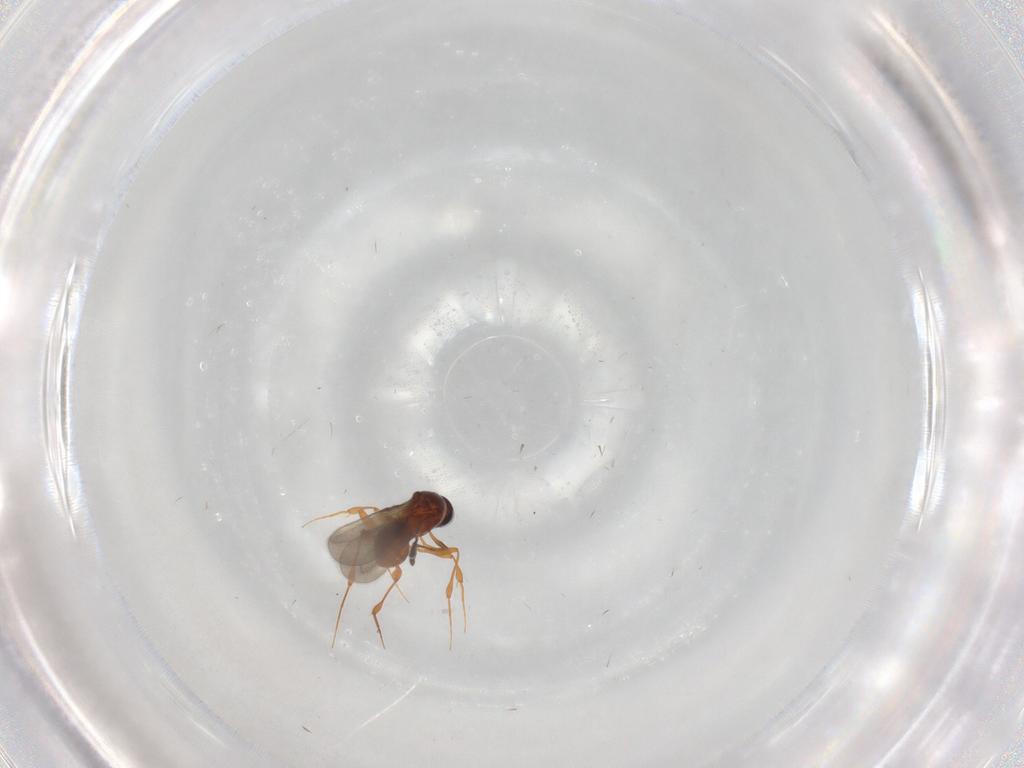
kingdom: Animalia
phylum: Arthropoda
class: Insecta
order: Hymenoptera
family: Platygastridae
